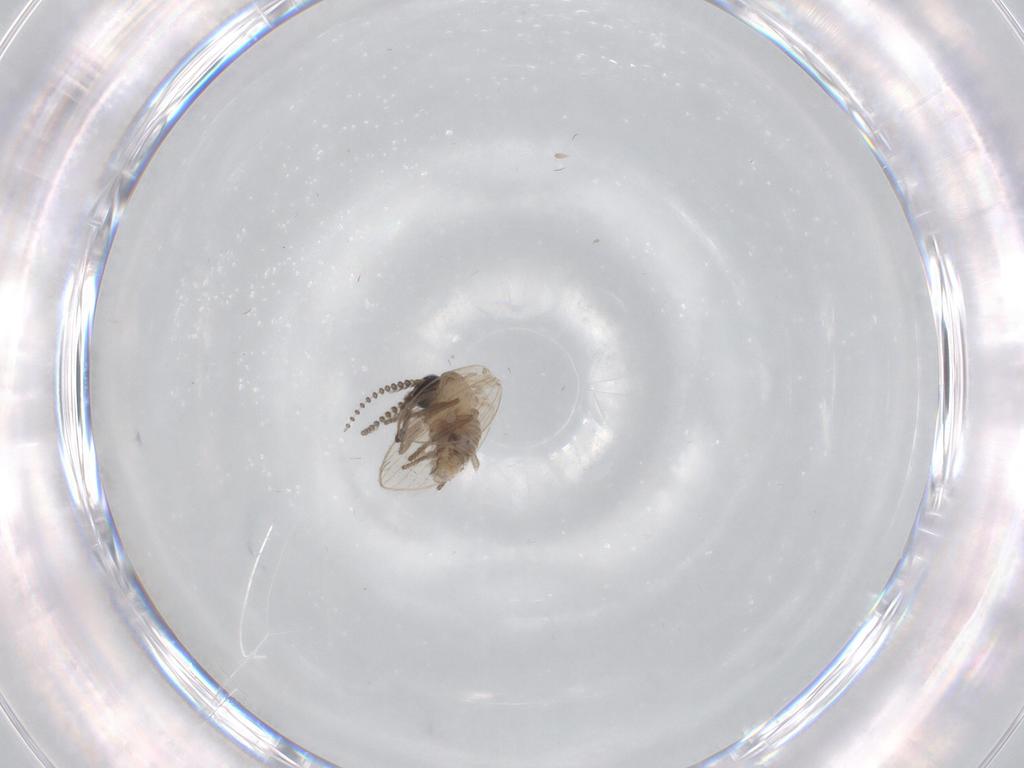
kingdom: Animalia
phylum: Arthropoda
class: Insecta
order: Diptera
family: Psychodidae
